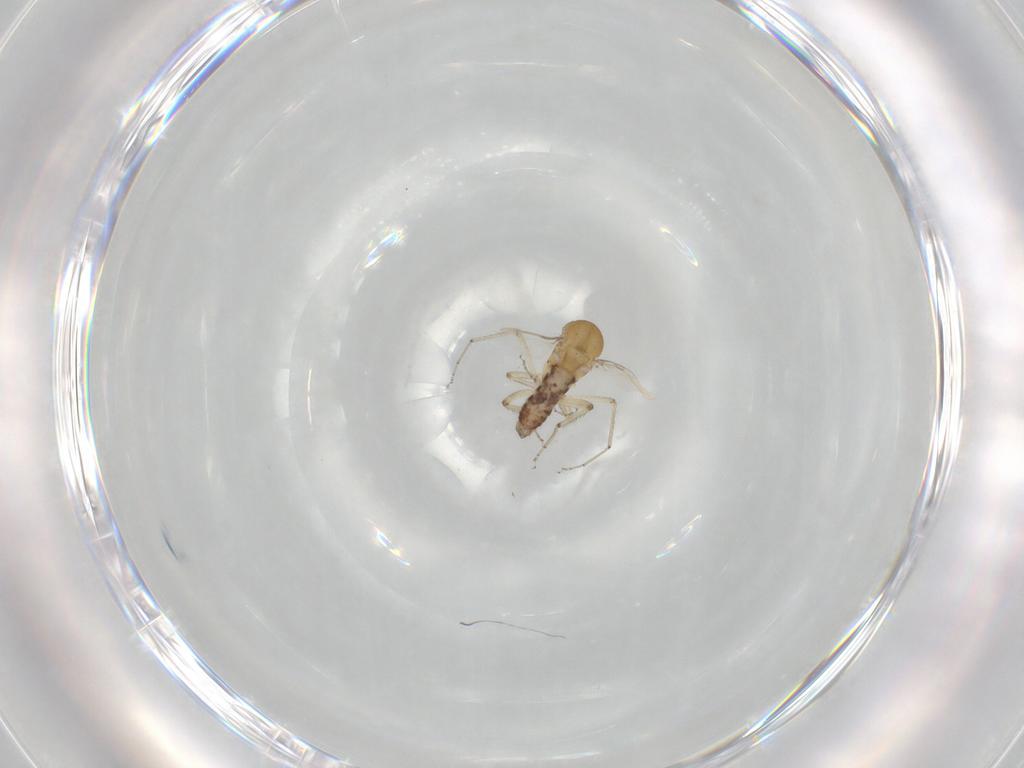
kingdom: Animalia
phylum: Arthropoda
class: Insecta
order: Diptera
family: Ceratopogonidae
